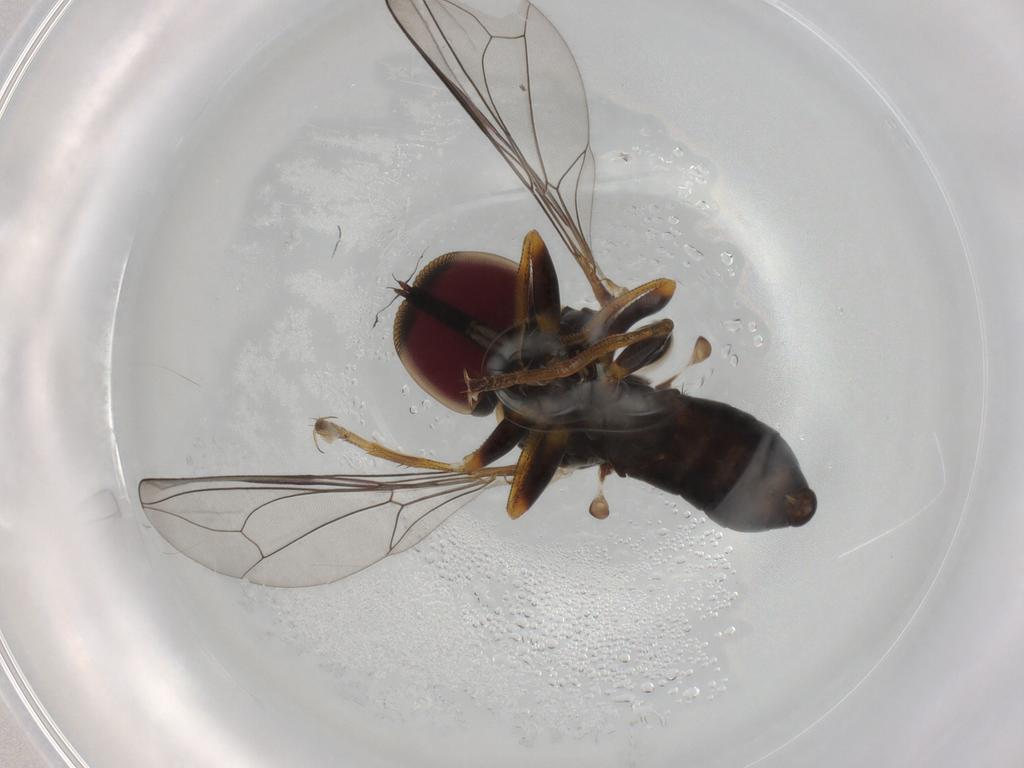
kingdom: Animalia
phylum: Arthropoda
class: Insecta
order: Diptera
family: Pipunculidae
